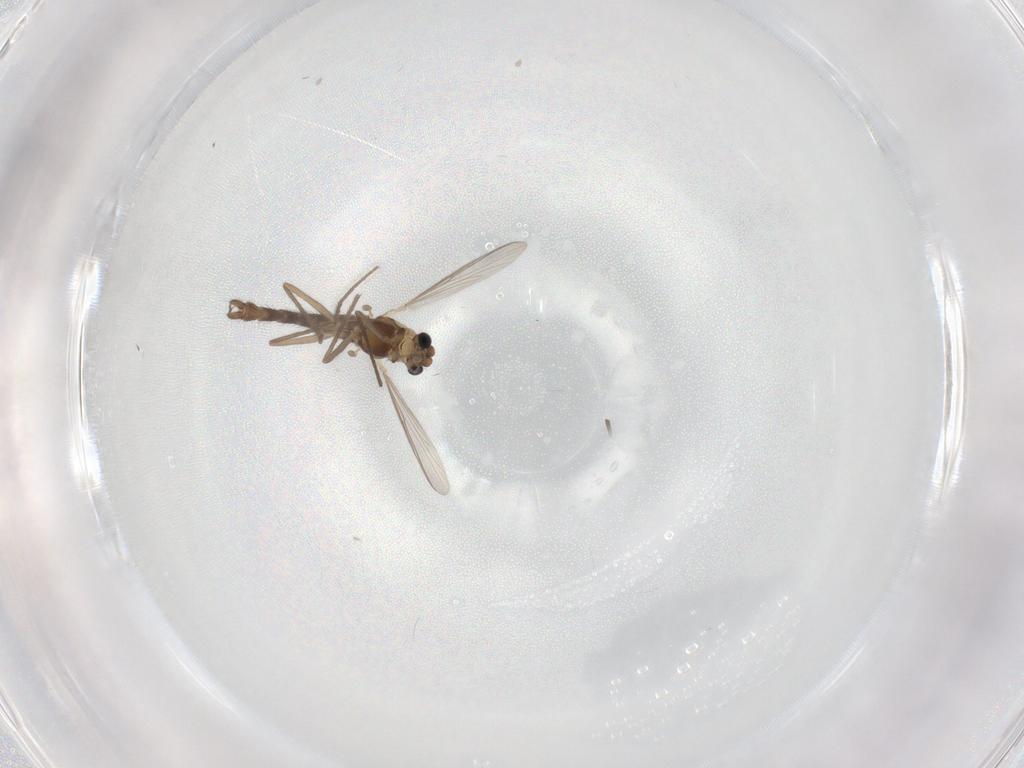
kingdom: Animalia
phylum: Arthropoda
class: Insecta
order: Diptera
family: Chironomidae
